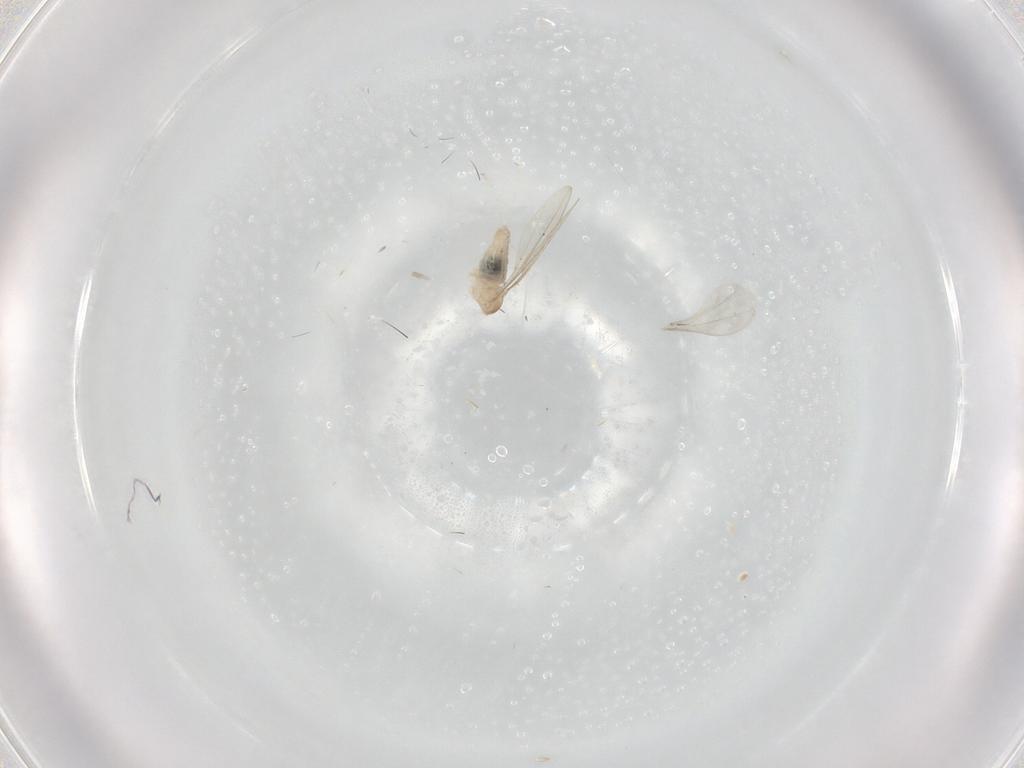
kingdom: Animalia
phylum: Arthropoda
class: Insecta
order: Diptera
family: Cecidomyiidae
